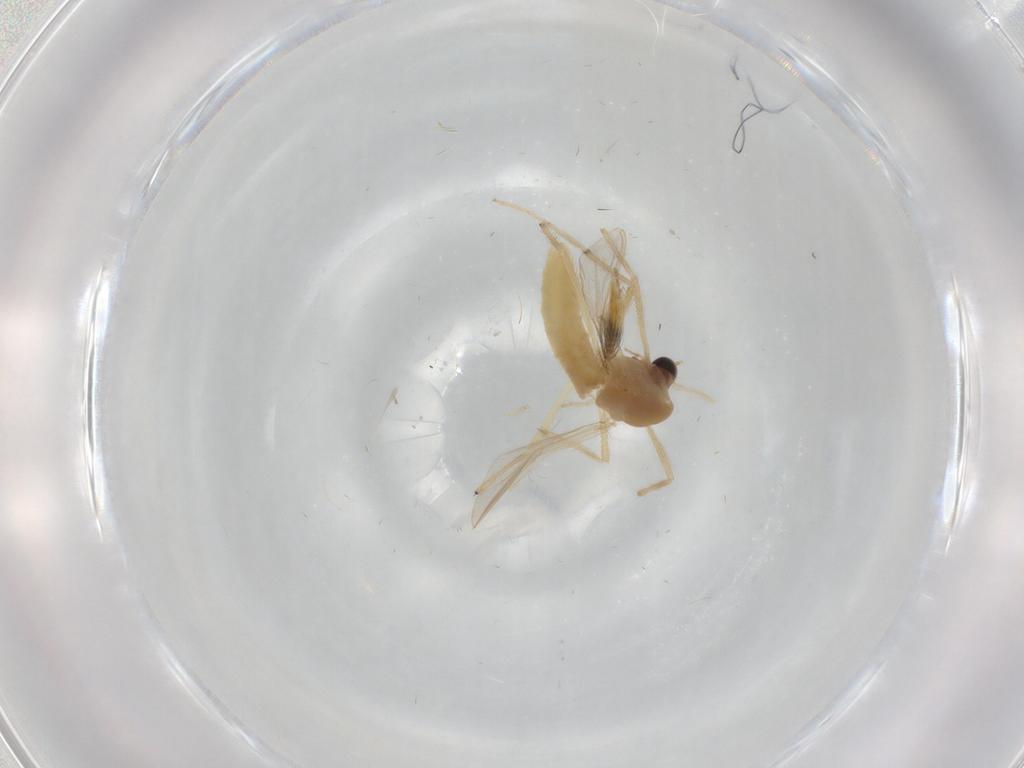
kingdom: Animalia
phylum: Arthropoda
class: Insecta
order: Diptera
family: Chironomidae
